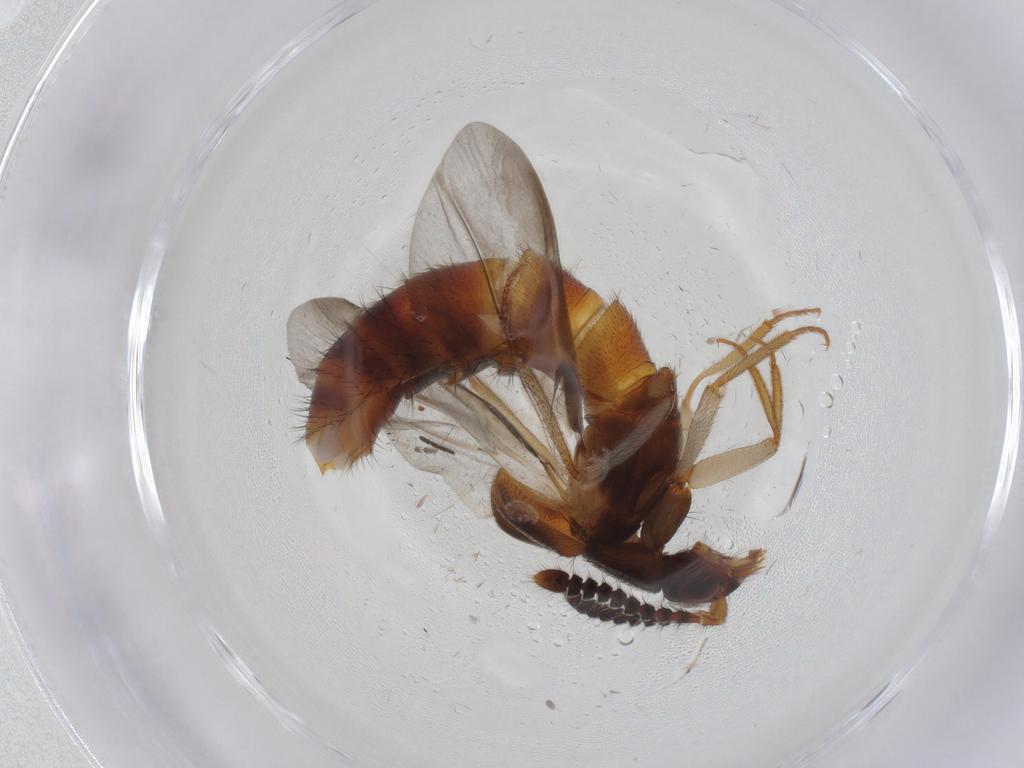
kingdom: Animalia
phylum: Arthropoda
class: Insecta
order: Coleoptera
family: Staphylinidae
